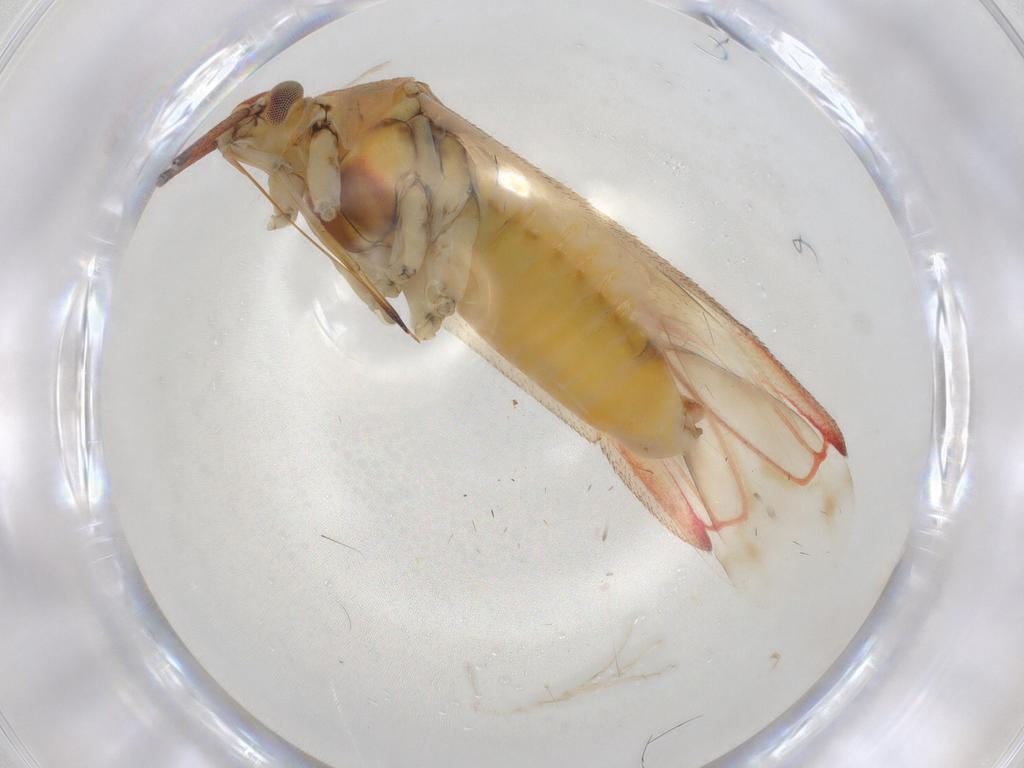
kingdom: Animalia
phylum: Arthropoda
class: Insecta
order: Hemiptera
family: Miridae
